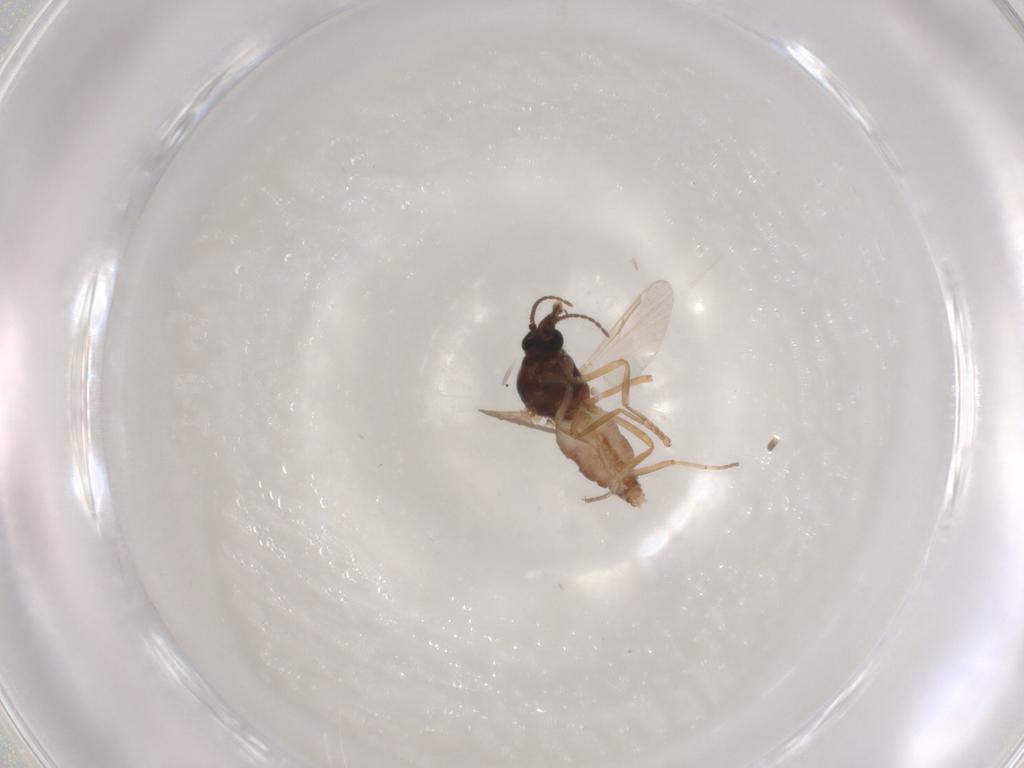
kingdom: Animalia
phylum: Arthropoda
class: Insecta
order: Diptera
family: Ceratopogonidae
